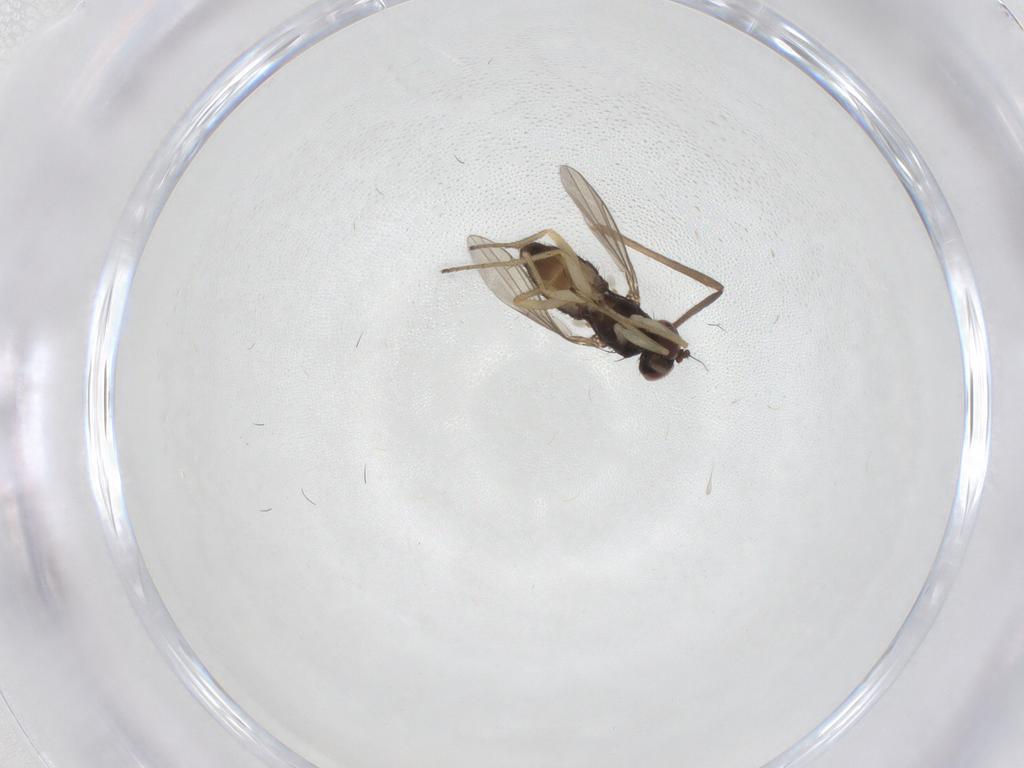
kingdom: Animalia
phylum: Arthropoda
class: Insecta
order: Diptera
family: Dolichopodidae
